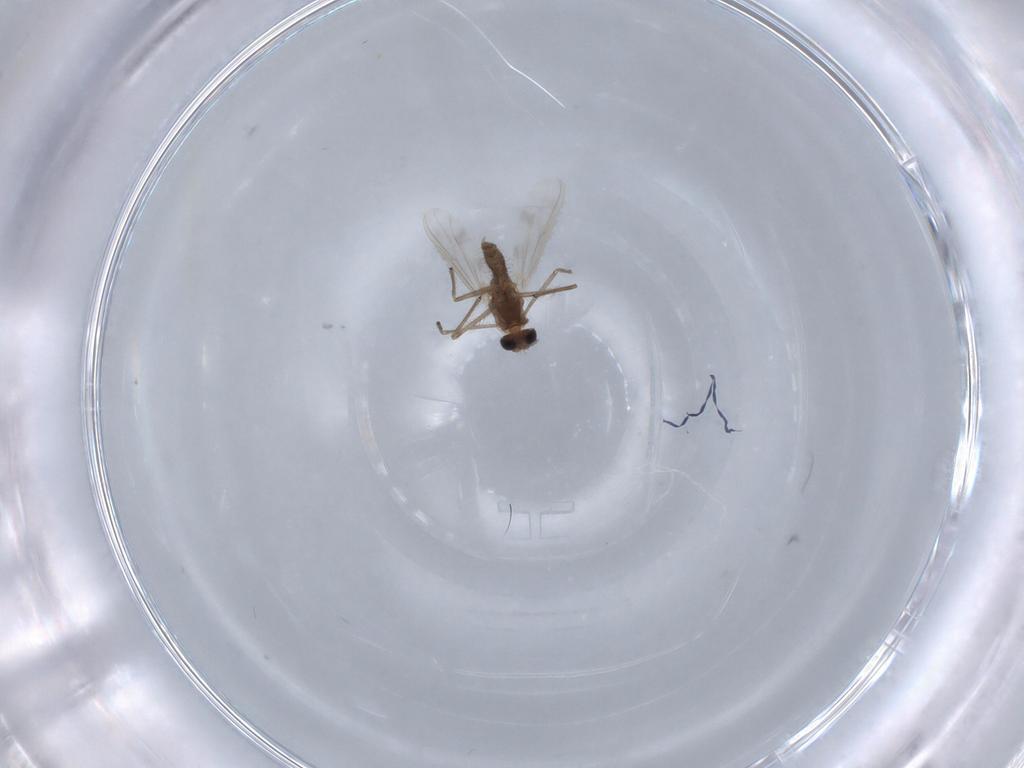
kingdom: Animalia
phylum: Arthropoda
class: Insecta
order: Diptera
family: Chironomidae
